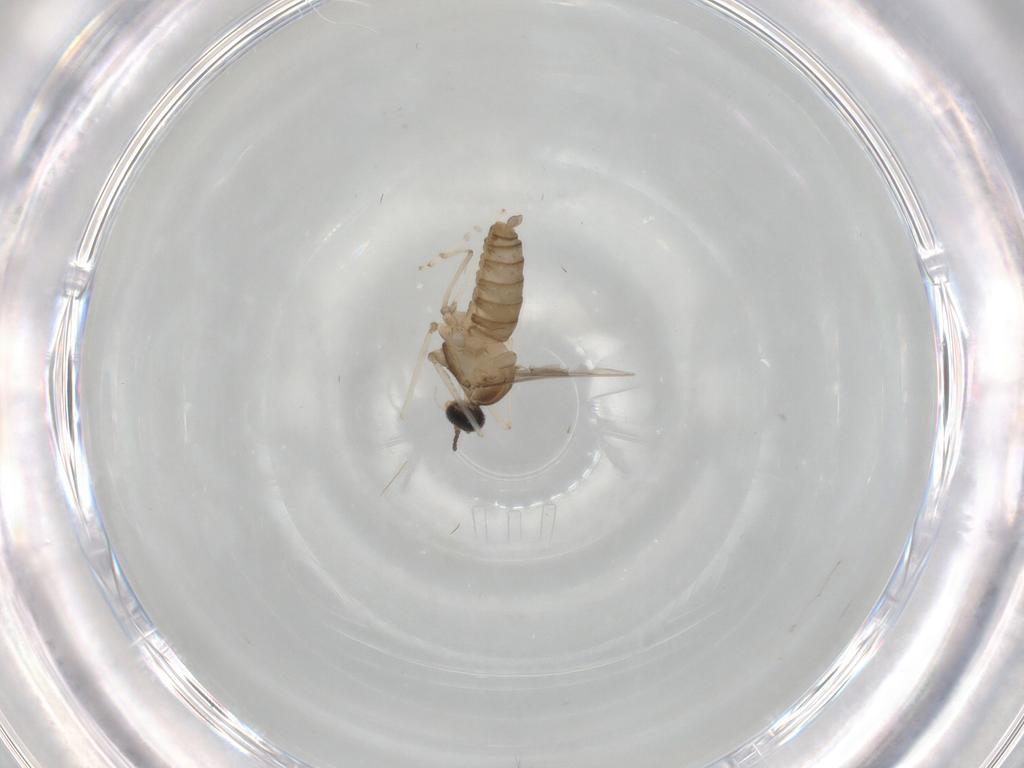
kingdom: Animalia
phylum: Arthropoda
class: Insecta
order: Diptera
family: Cecidomyiidae
